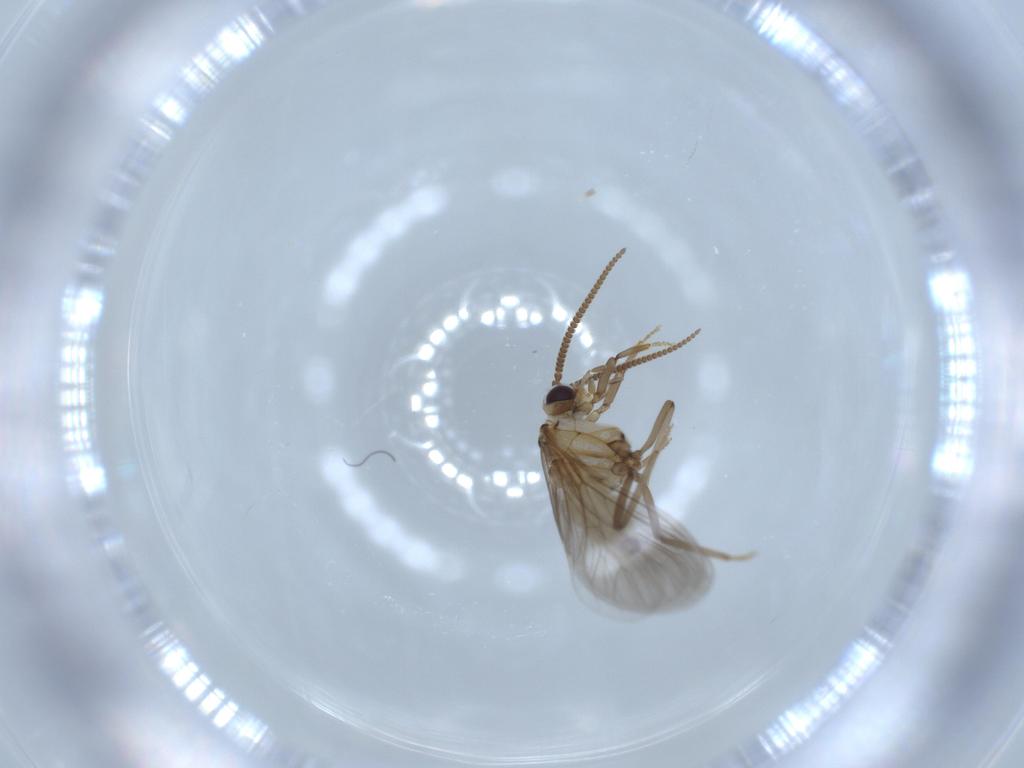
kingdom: Animalia
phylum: Arthropoda
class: Insecta
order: Neuroptera
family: Coniopterygidae
